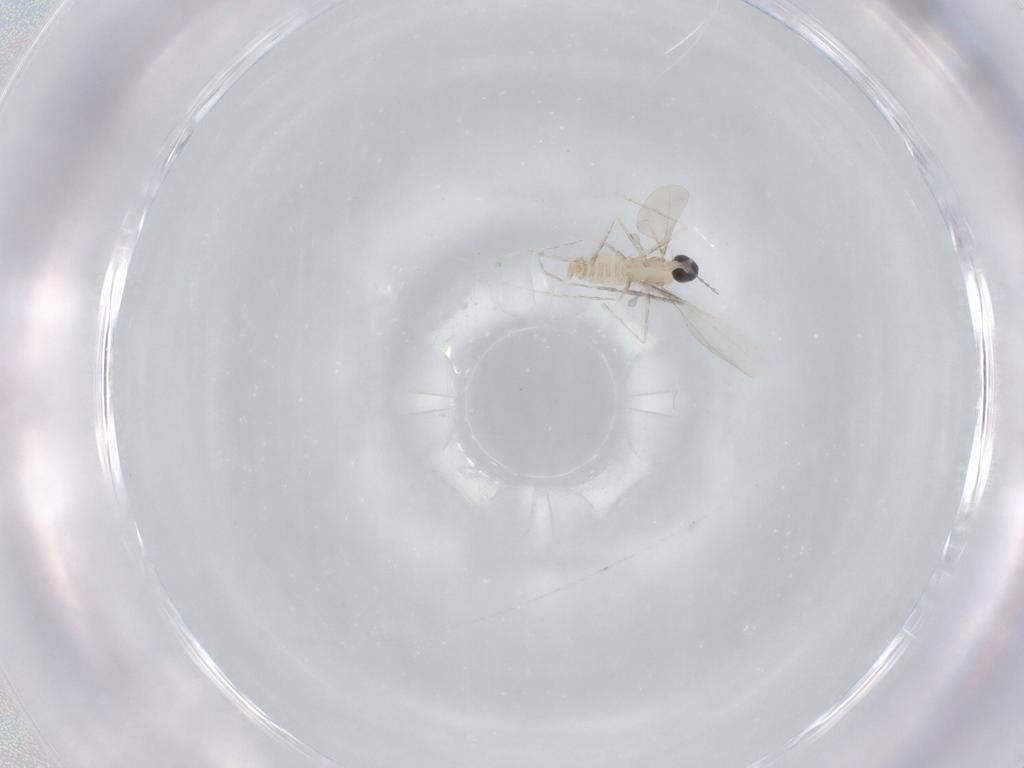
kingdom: Animalia
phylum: Arthropoda
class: Insecta
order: Diptera
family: Cecidomyiidae
